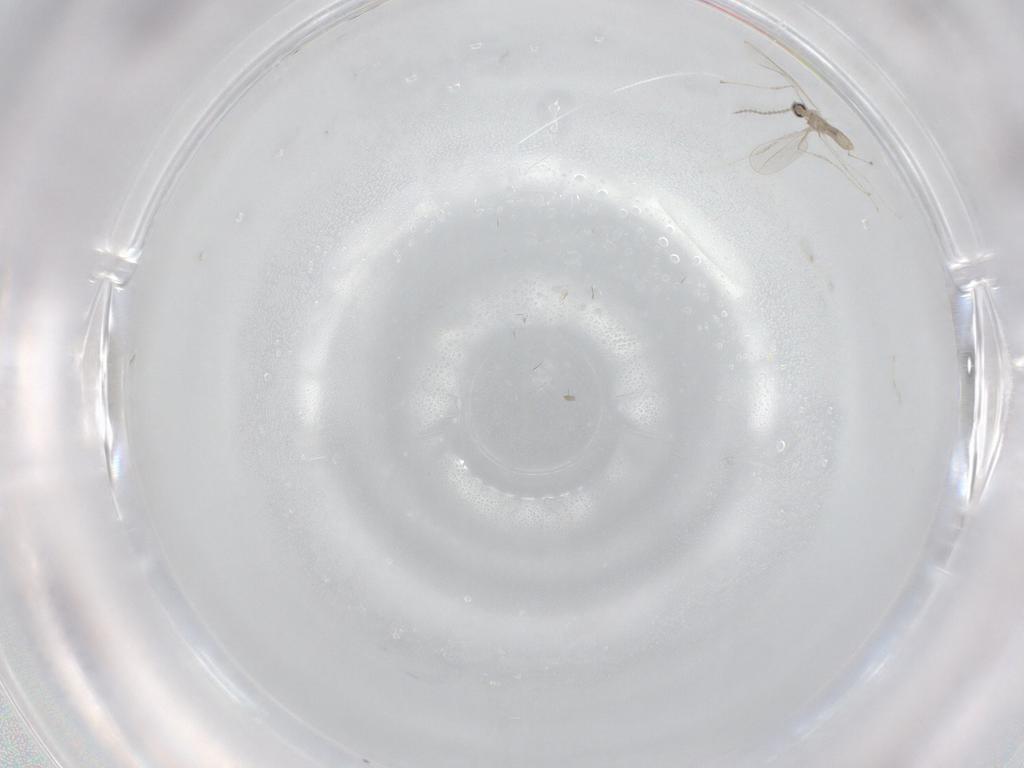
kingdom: Animalia
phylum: Arthropoda
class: Insecta
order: Diptera
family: Cecidomyiidae
